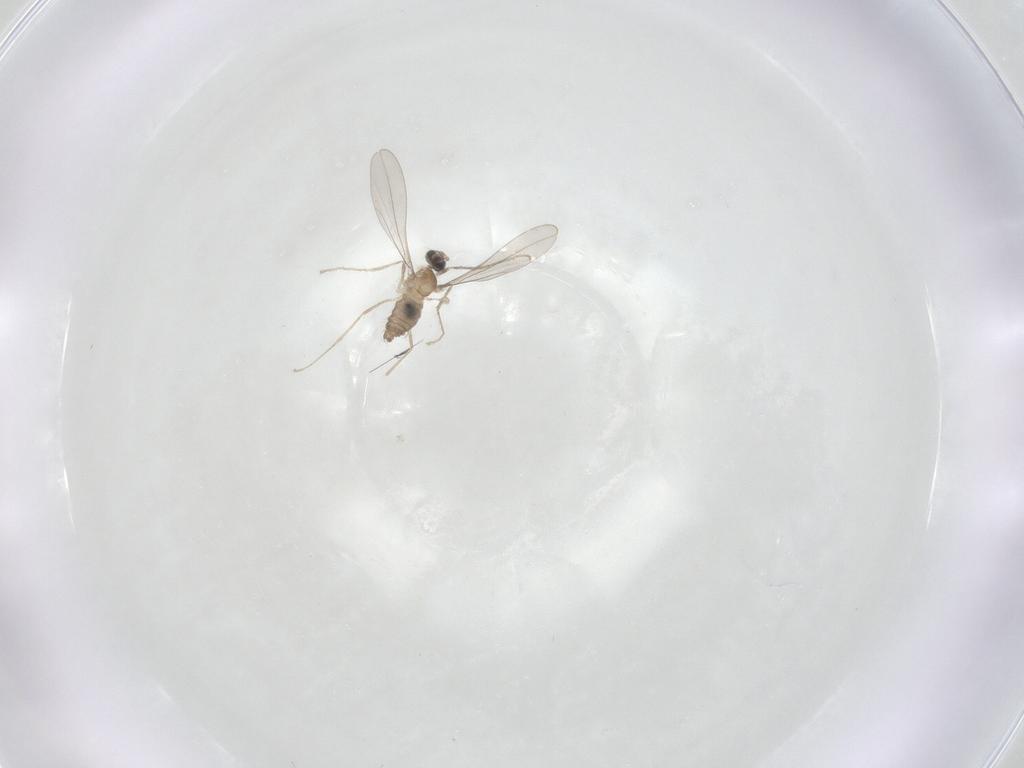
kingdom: Animalia
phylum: Arthropoda
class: Insecta
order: Diptera
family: Cecidomyiidae
